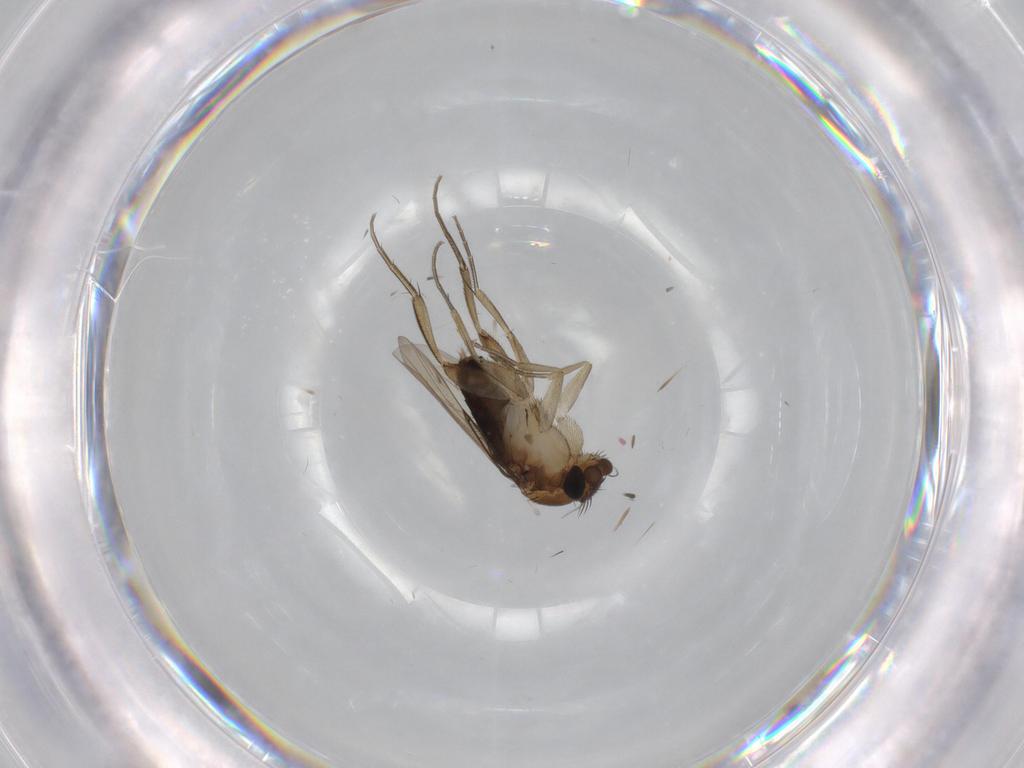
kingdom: Animalia
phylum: Arthropoda
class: Insecta
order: Diptera
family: Phoridae
